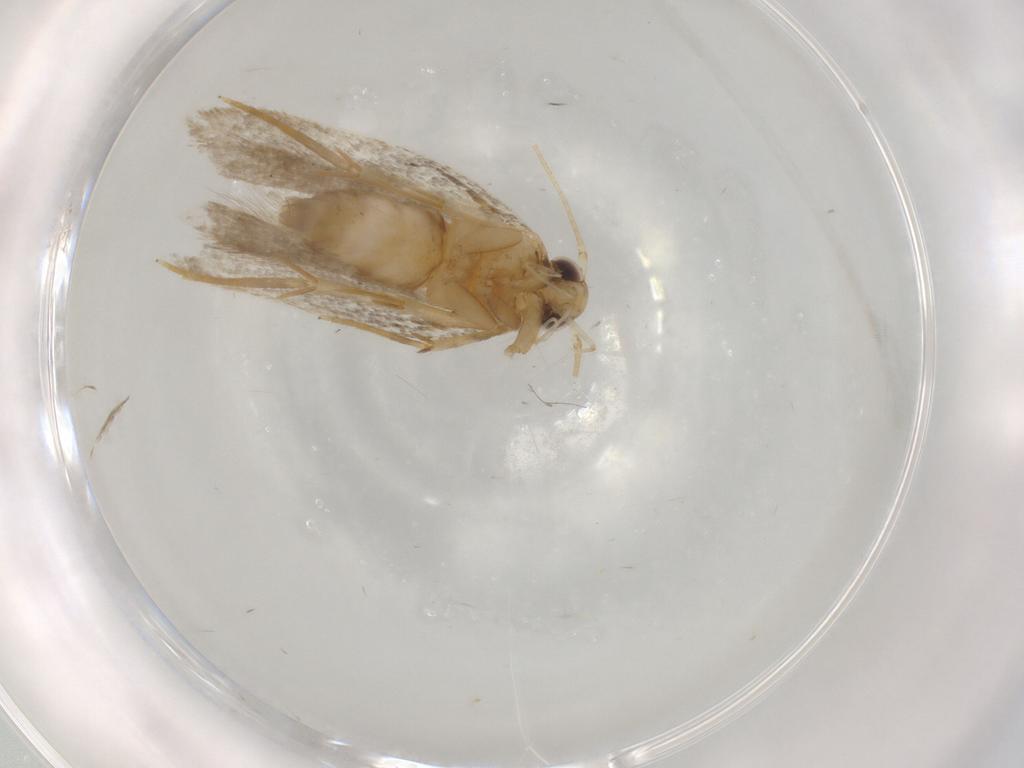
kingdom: Animalia
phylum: Arthropoda
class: Insecta
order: Lepidoptera
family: Autostichidae
